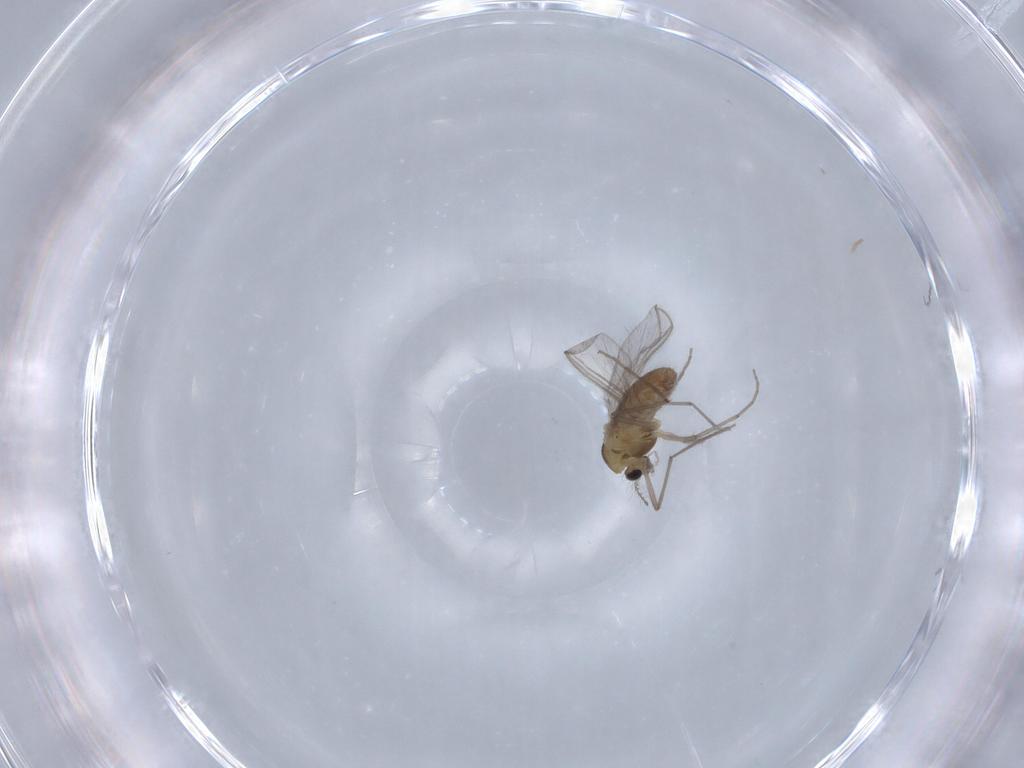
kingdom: Animalia
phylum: Arthropoda
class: Insecta
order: Diptera
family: Chironomidae
